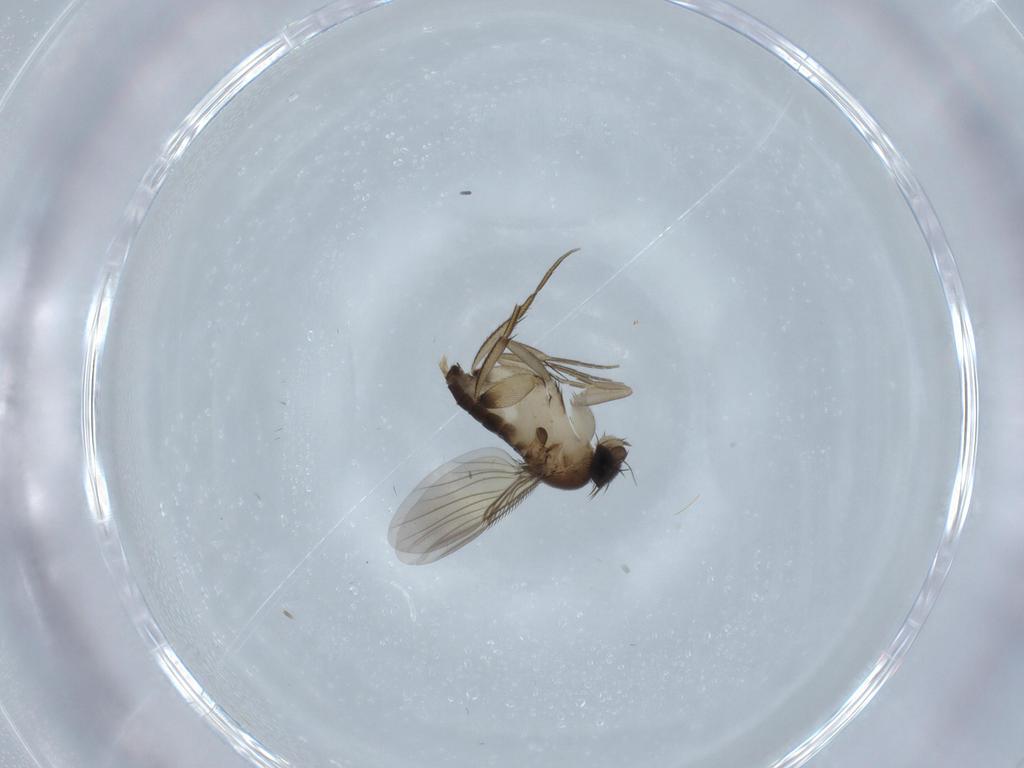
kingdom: Animalia
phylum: Arthropoda
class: Insecta
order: Diptera
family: Phoridae
